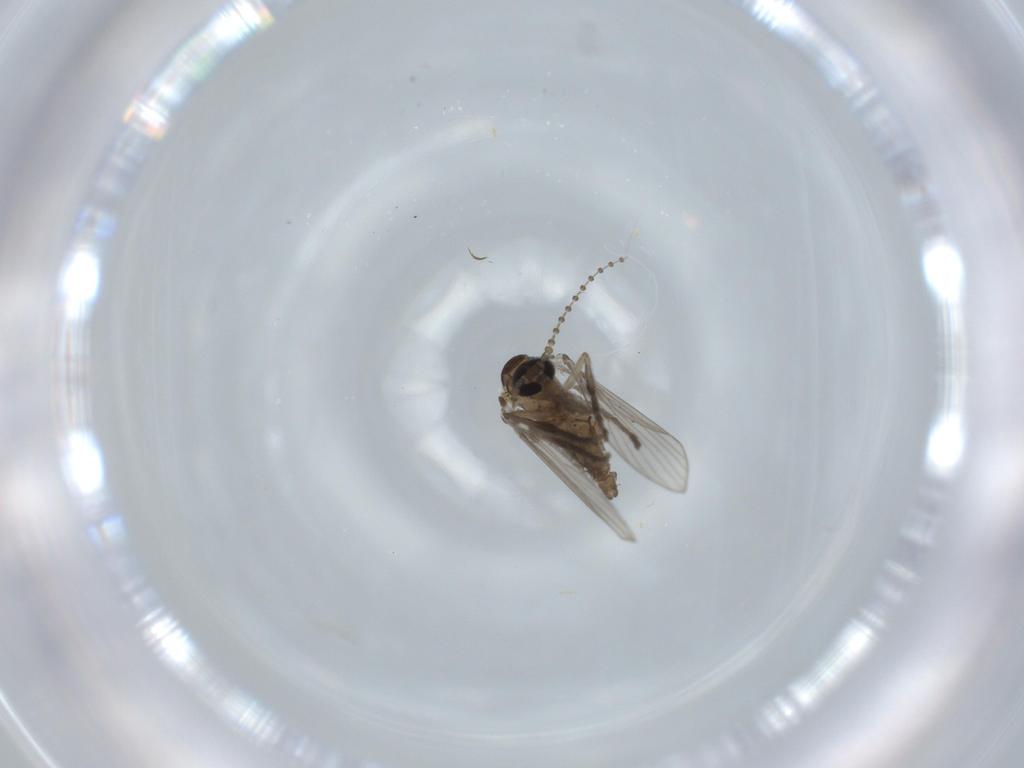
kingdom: Animalia
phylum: Arthropoda
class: Insecta
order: Diptera
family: Psychodidae
